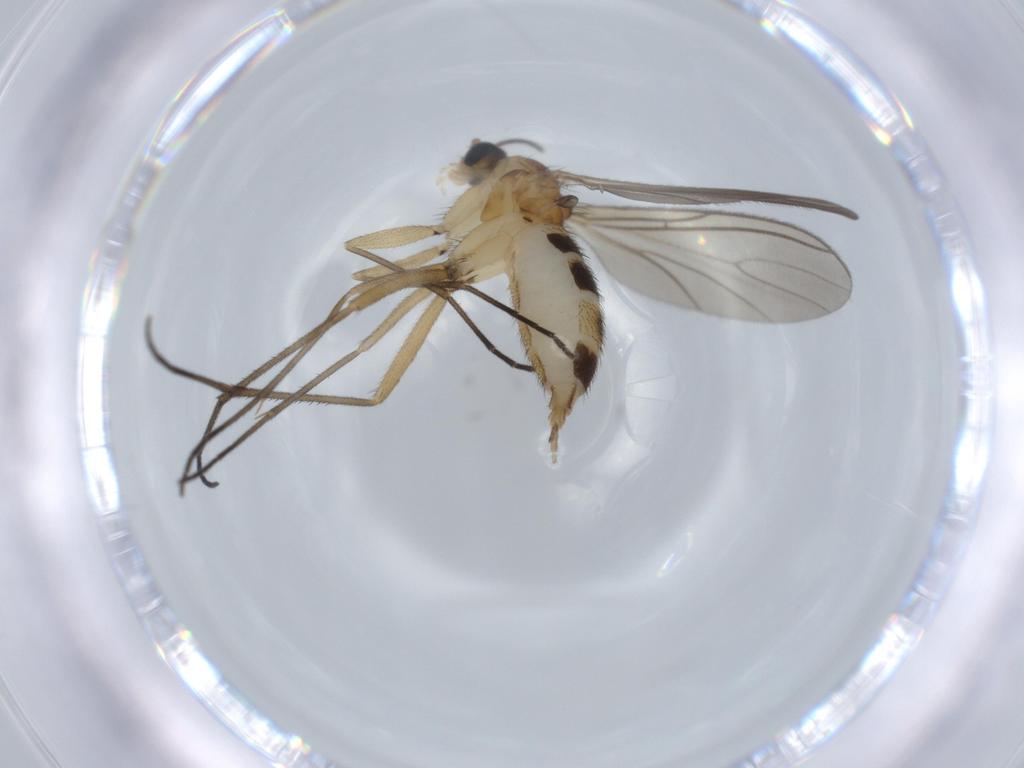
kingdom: Animalia
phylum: Arthropoda
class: Insecta
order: Diptera
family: Sciaridae
